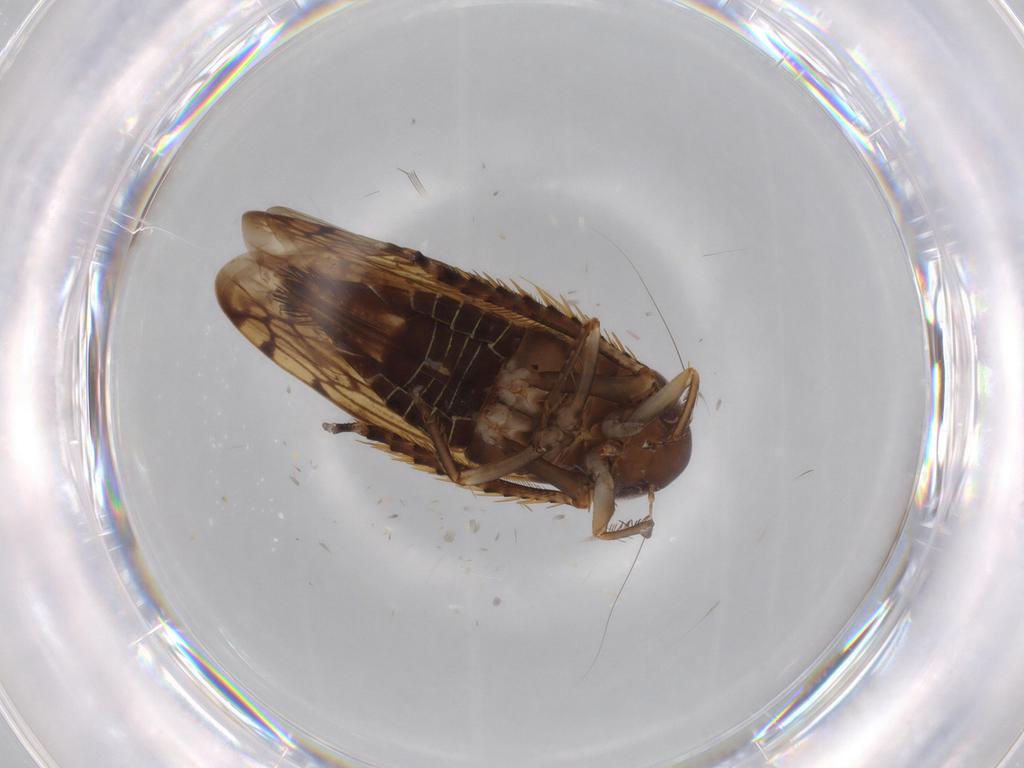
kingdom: Animalia
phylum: Arthropoda
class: Insecta
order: Hemiptera
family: Cicadellidae
